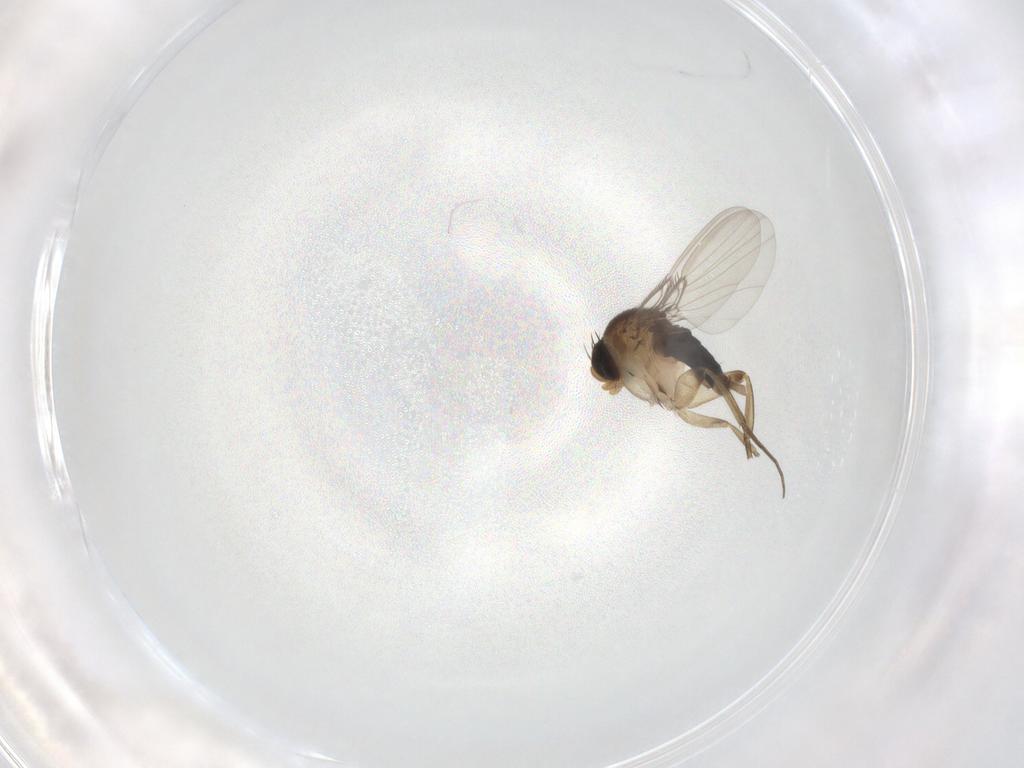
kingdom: Animalia
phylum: Arthropoda
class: Insecta
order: Diptera
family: Phoridae
